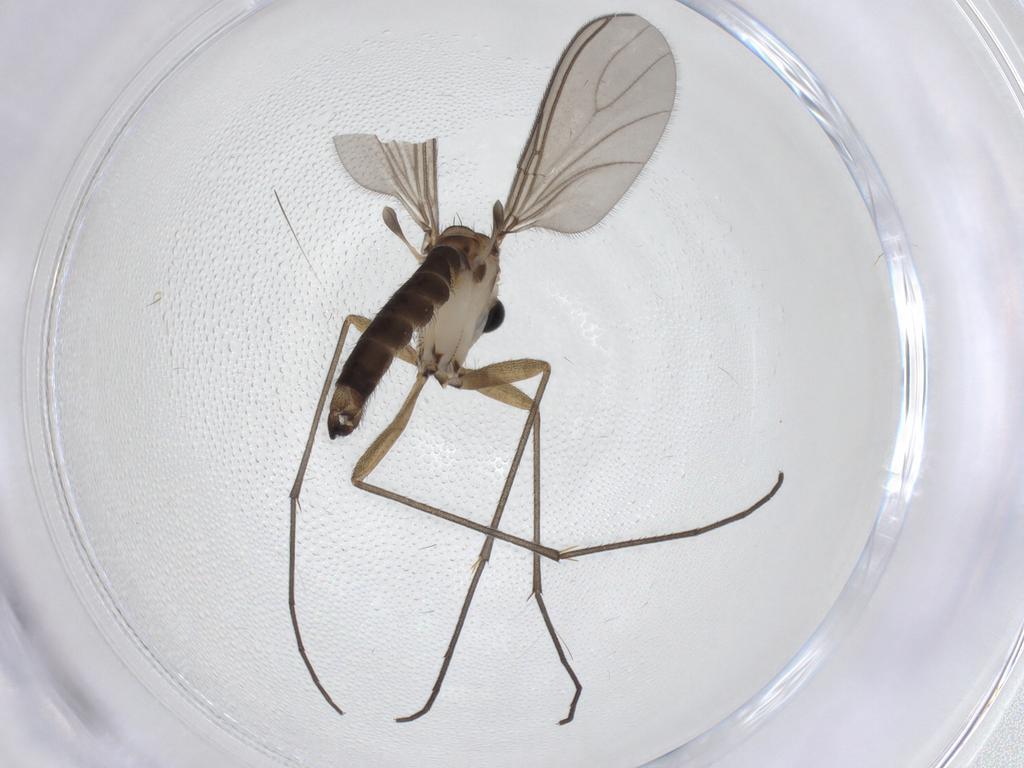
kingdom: Animalia
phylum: Arthropoda
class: Insecta
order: Diptera
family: Sciaridae
